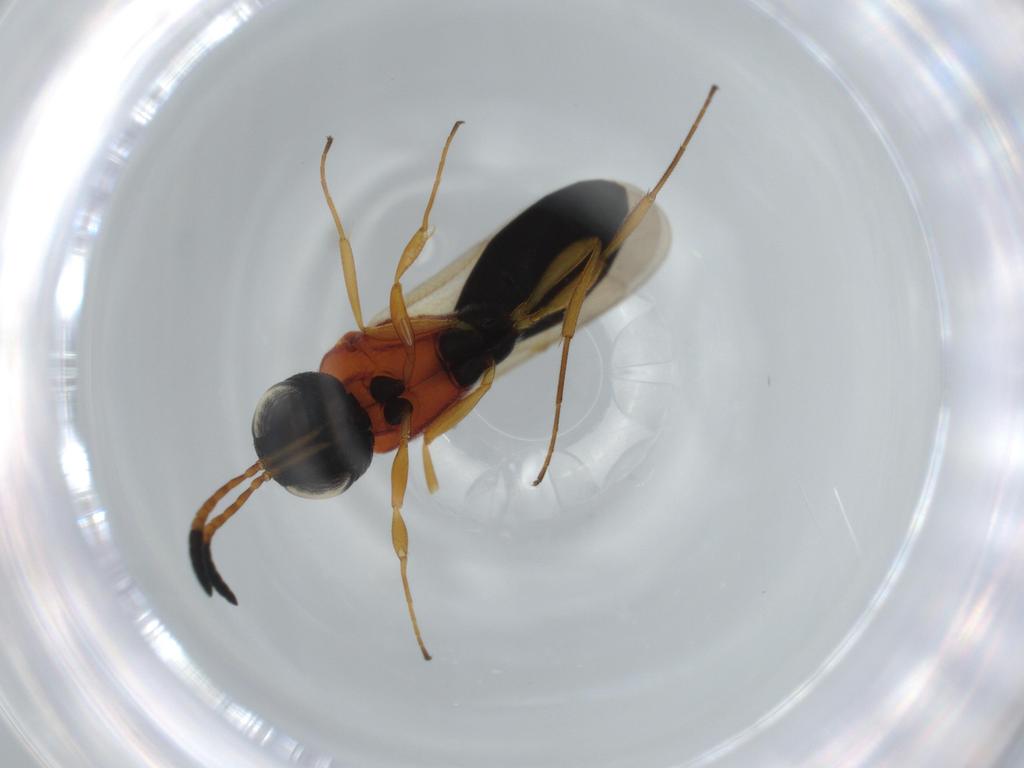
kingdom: Animalia
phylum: Arthropoda
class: Insecta
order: Hymenoptera
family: Scelionidae
